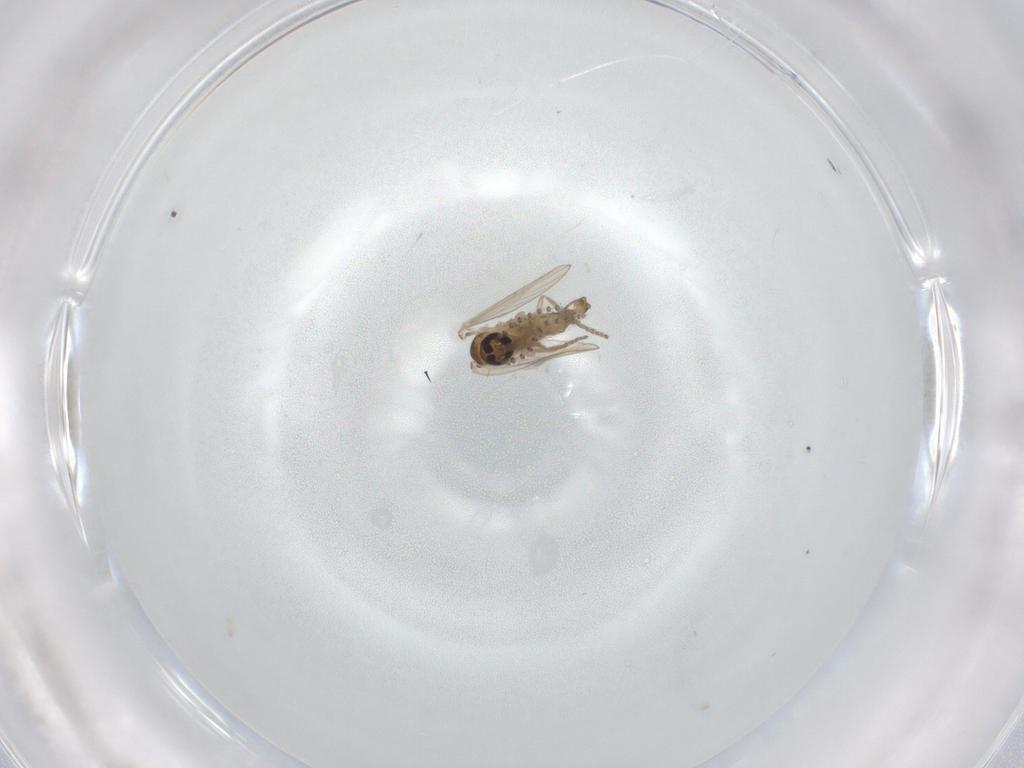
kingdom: Animalia
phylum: Arthropoda
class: Insecta
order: Diptera
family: Psychodidae
